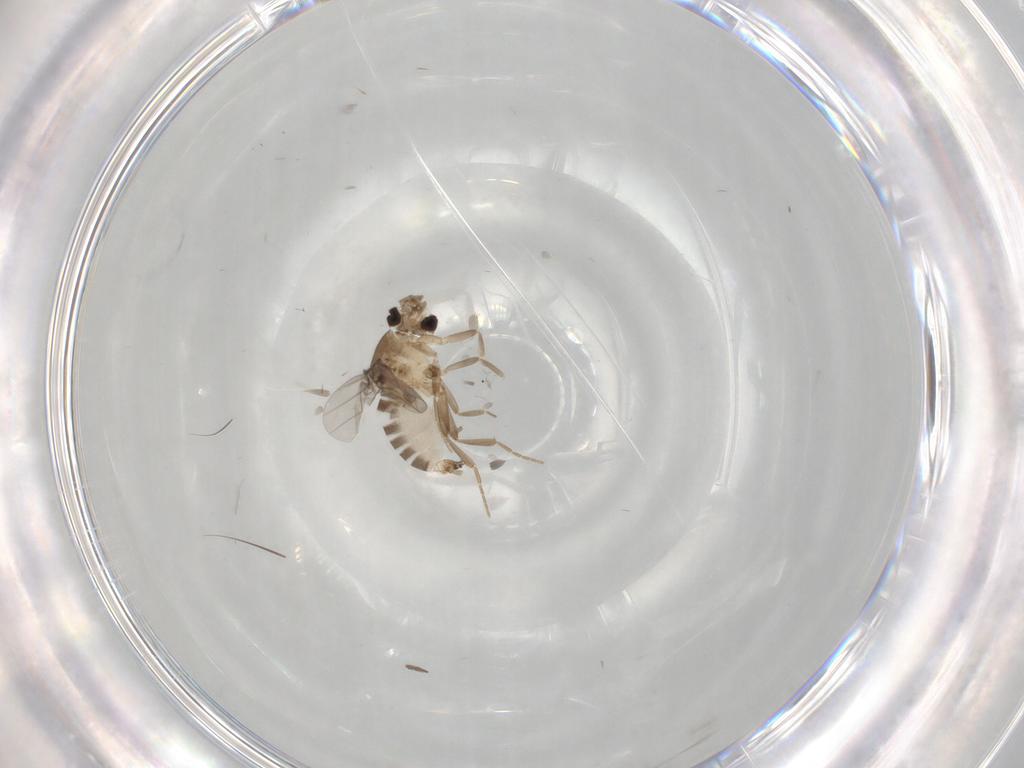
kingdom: Animalia
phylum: Arthropoda
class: Insecta
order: Diptera
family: Psychodidae
